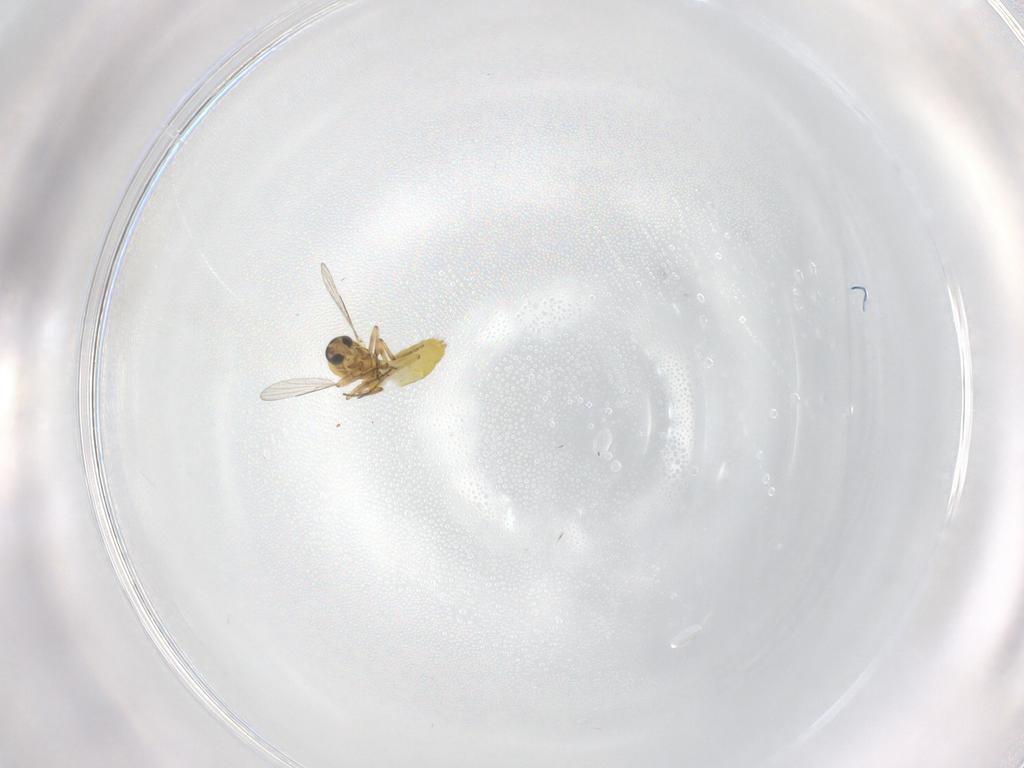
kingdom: Animalia
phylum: Arthropoda
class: Insecta
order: Diptera
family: Ceratopogonidae
